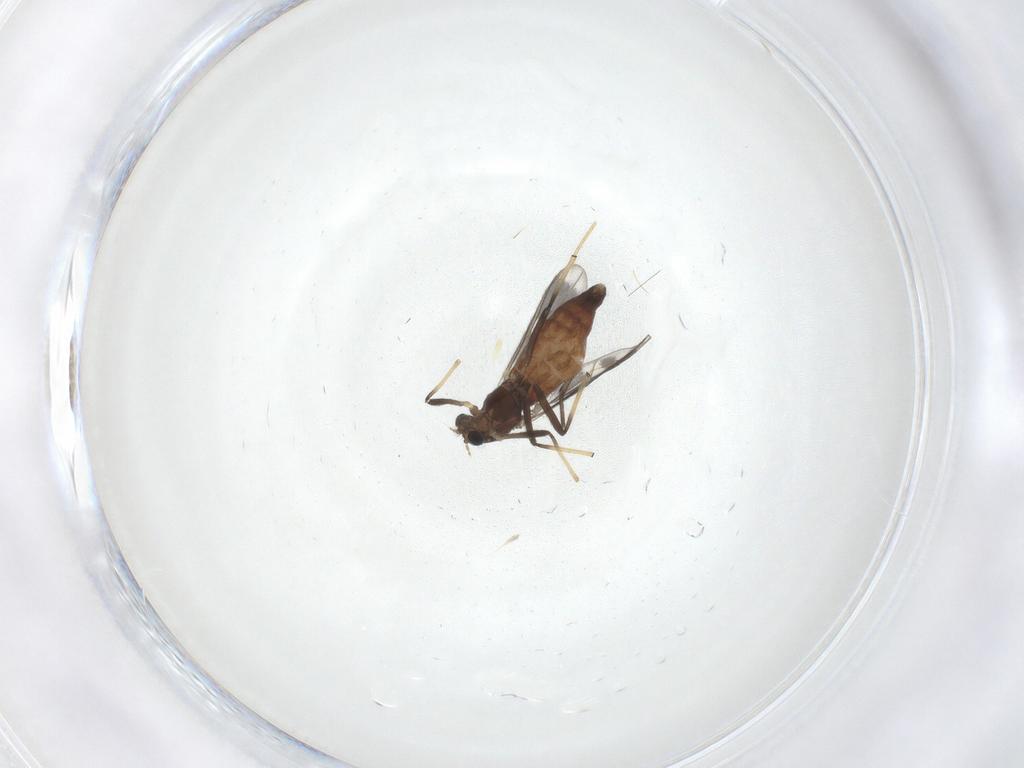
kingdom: Animalia
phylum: Arthropoda
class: Insecta
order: Diptera
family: Chironomidae
